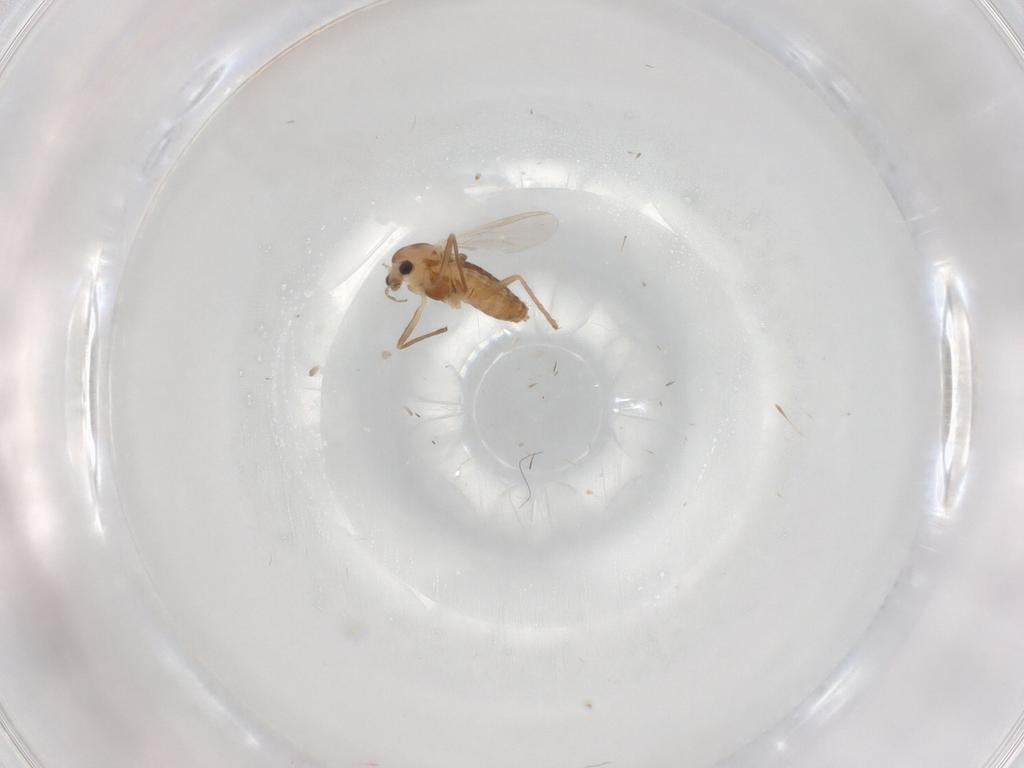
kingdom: Animalia
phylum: Arthropoda
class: Insecta
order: Diptera
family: Chironomidae
